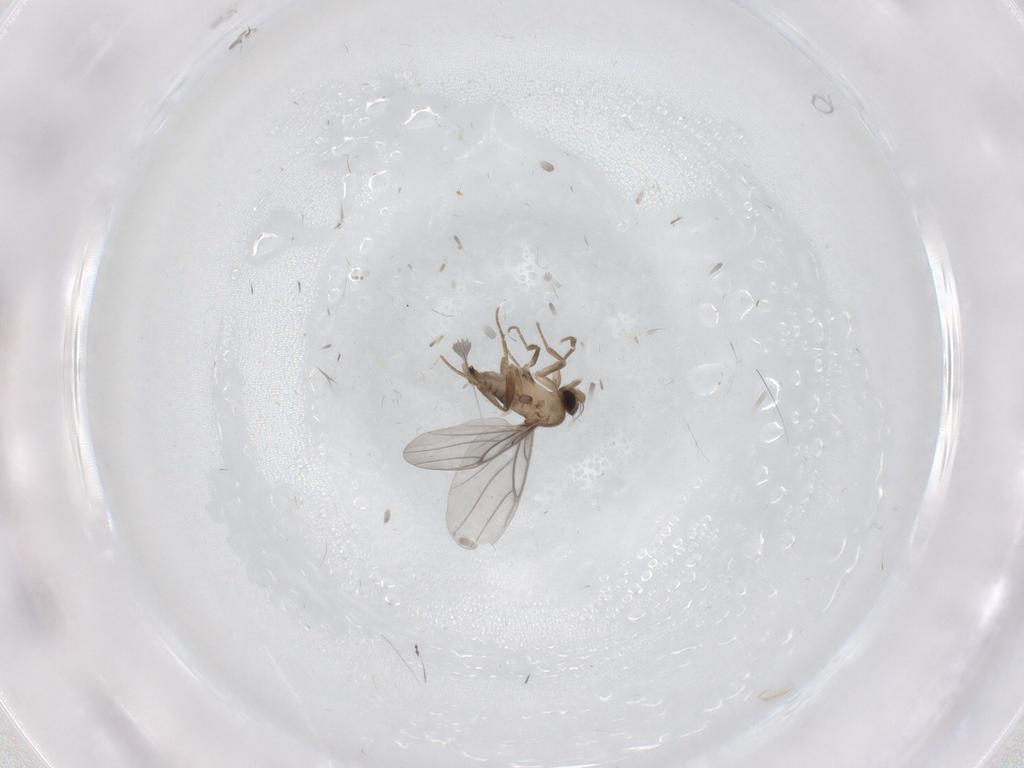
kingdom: Animalia
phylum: Arthropoda
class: Insecta
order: Diptera
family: Psychodidae
